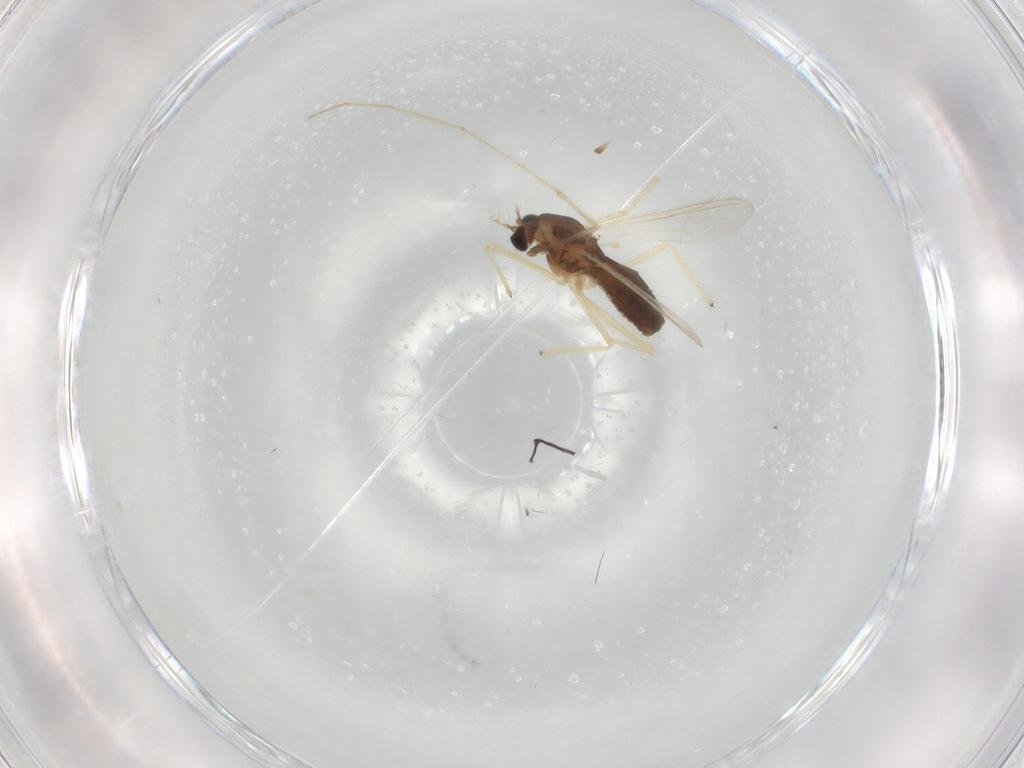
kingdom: Animalia
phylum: Arthropoda
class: Insecta
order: Diptera
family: Chironomidae
